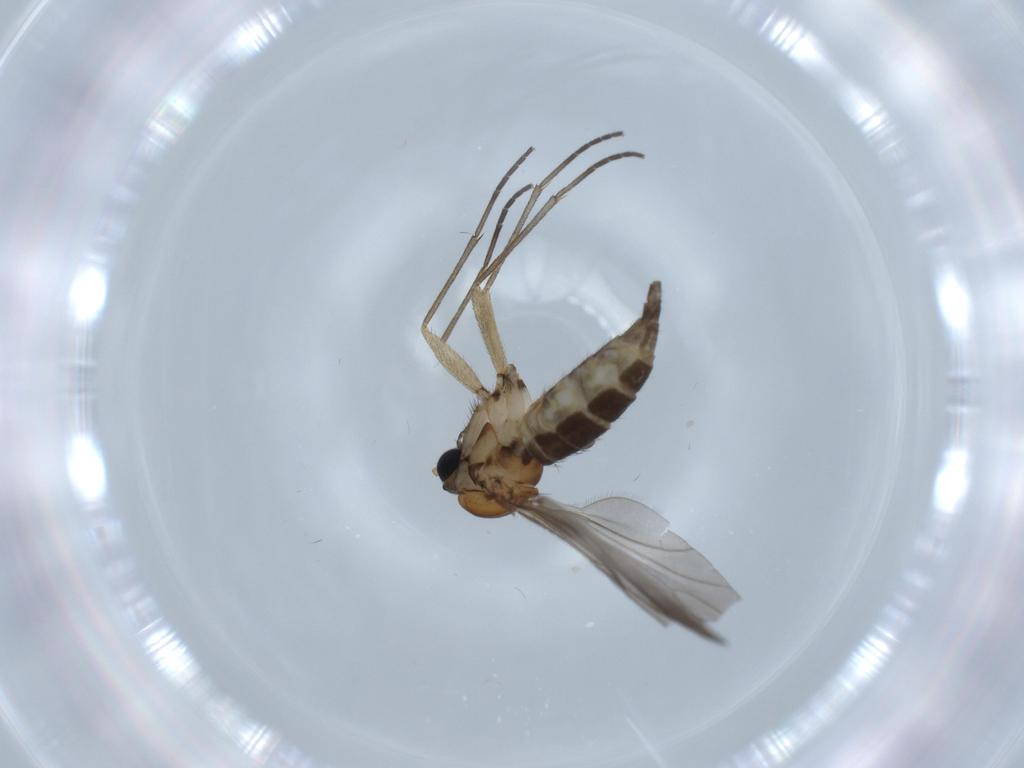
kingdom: Animalia
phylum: Arthropoda
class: Insecta
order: Diptera
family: Sciaridae
